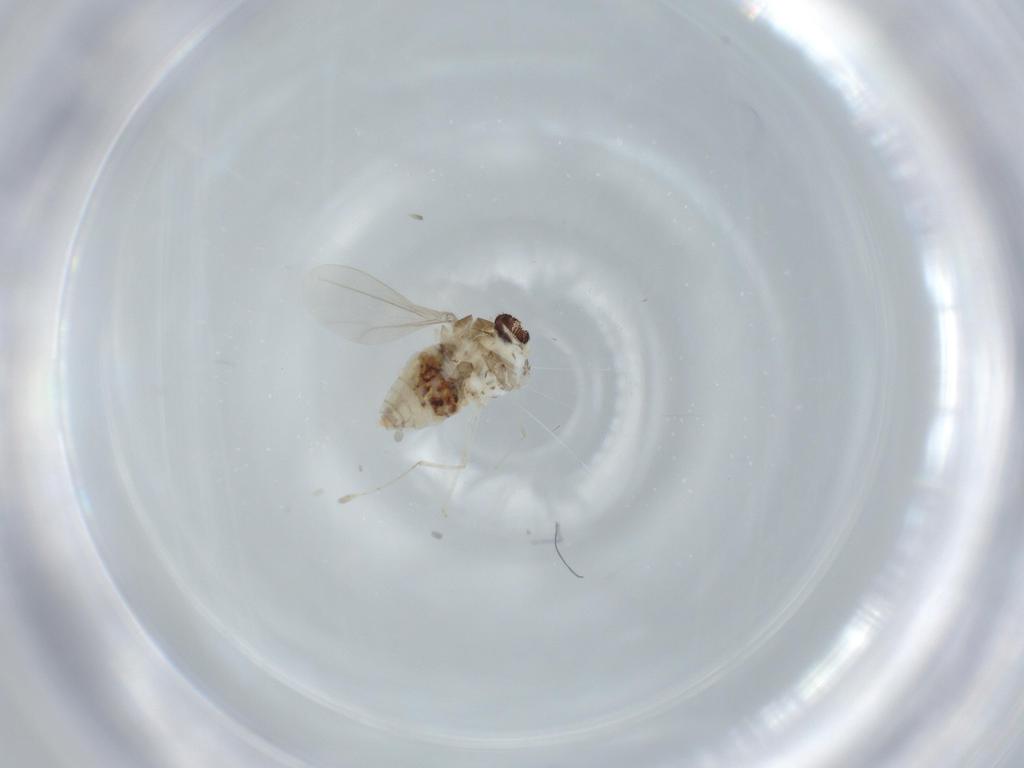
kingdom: Animalia
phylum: Arthropoda
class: Insecta
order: Diptera
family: Cecidomyiidae
